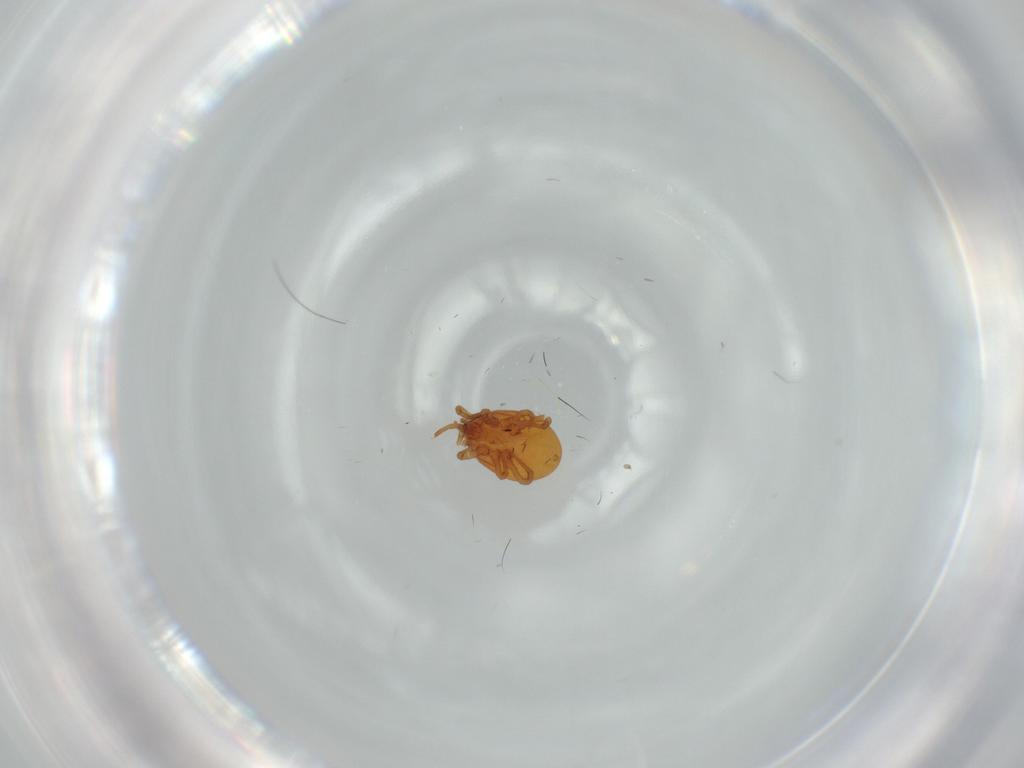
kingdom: Animalia
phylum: Arthropoda
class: Arachnida
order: Mesostigmata
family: Parasitidae
